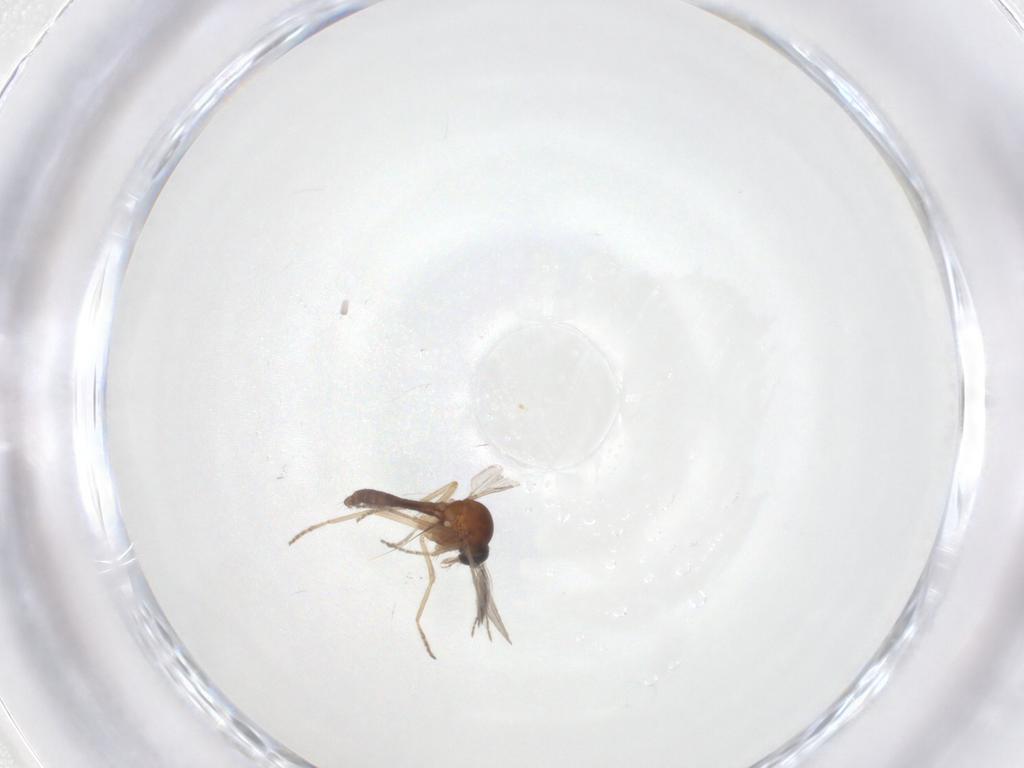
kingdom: Animalia
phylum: Arthropoda
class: Insecta
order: Diptera
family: Ceratopogonidae
